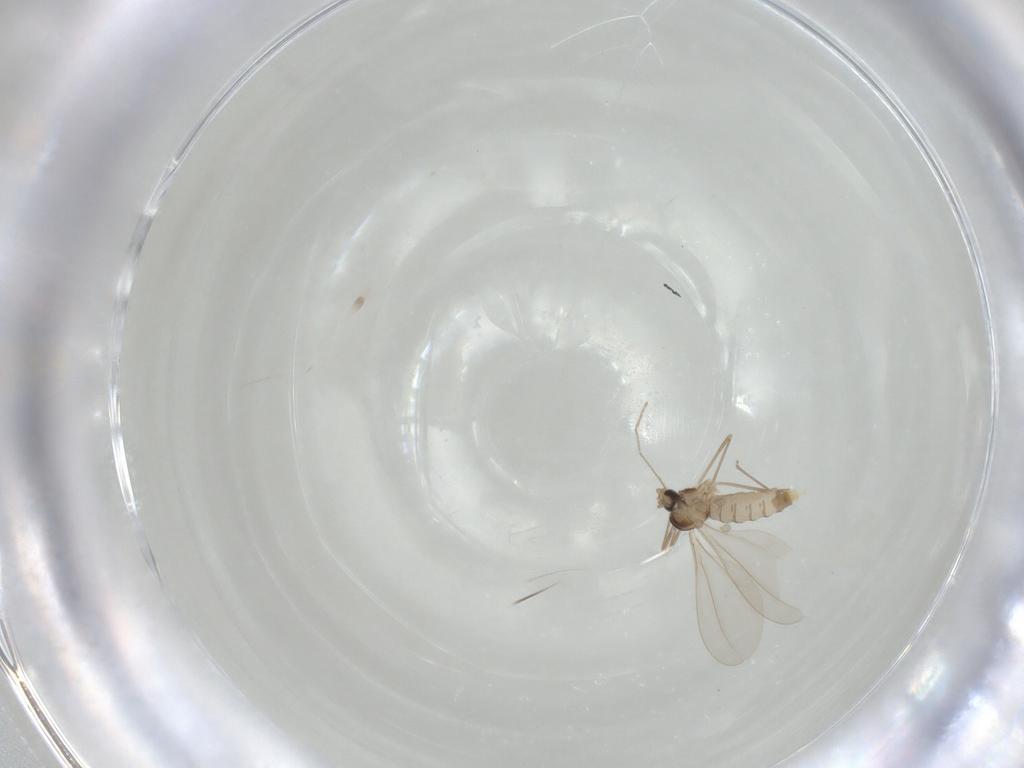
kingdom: Animalia
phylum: Arthropoda
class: Insecta
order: Diptera
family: Cecidomyiidae
